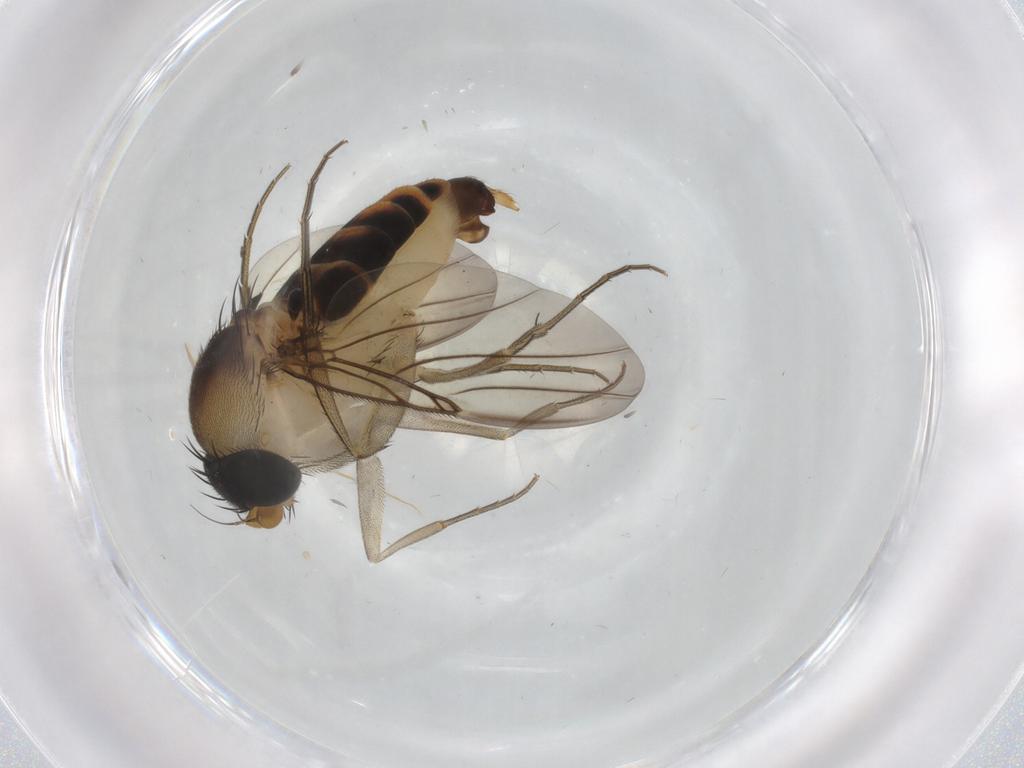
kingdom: Animalia
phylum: Arthropoda
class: Insecta
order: Diptera
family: Phoridae
